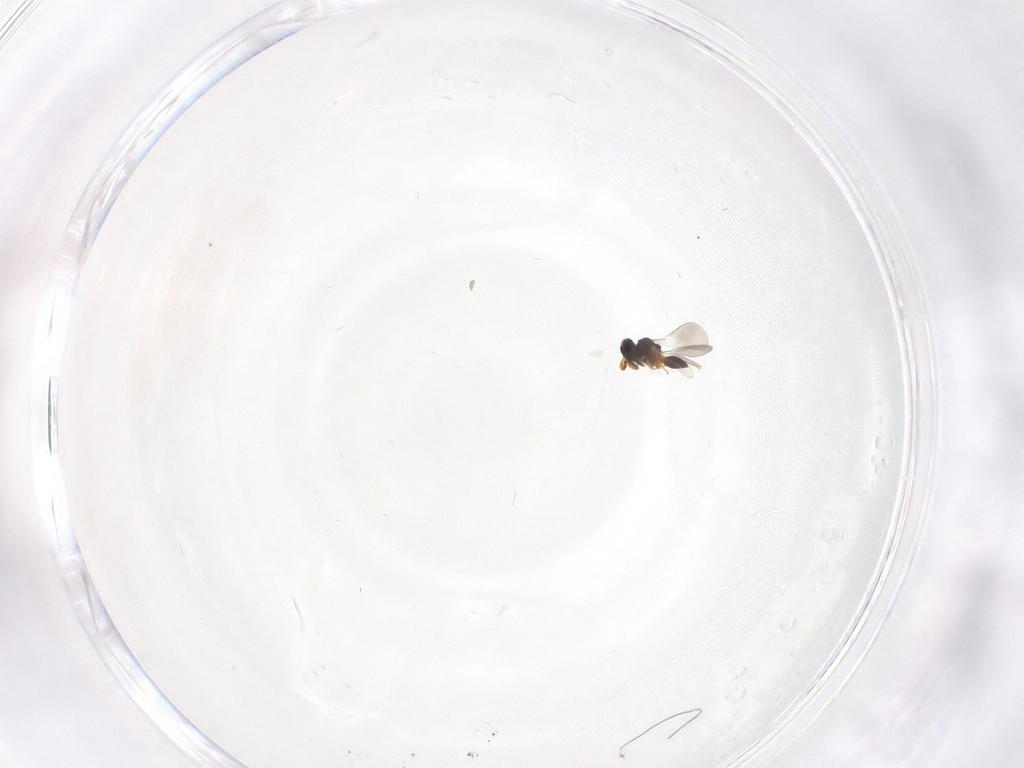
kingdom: Animalia
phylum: Arthropoda
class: Insecta
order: Hymenoptera
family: Platygastridae
